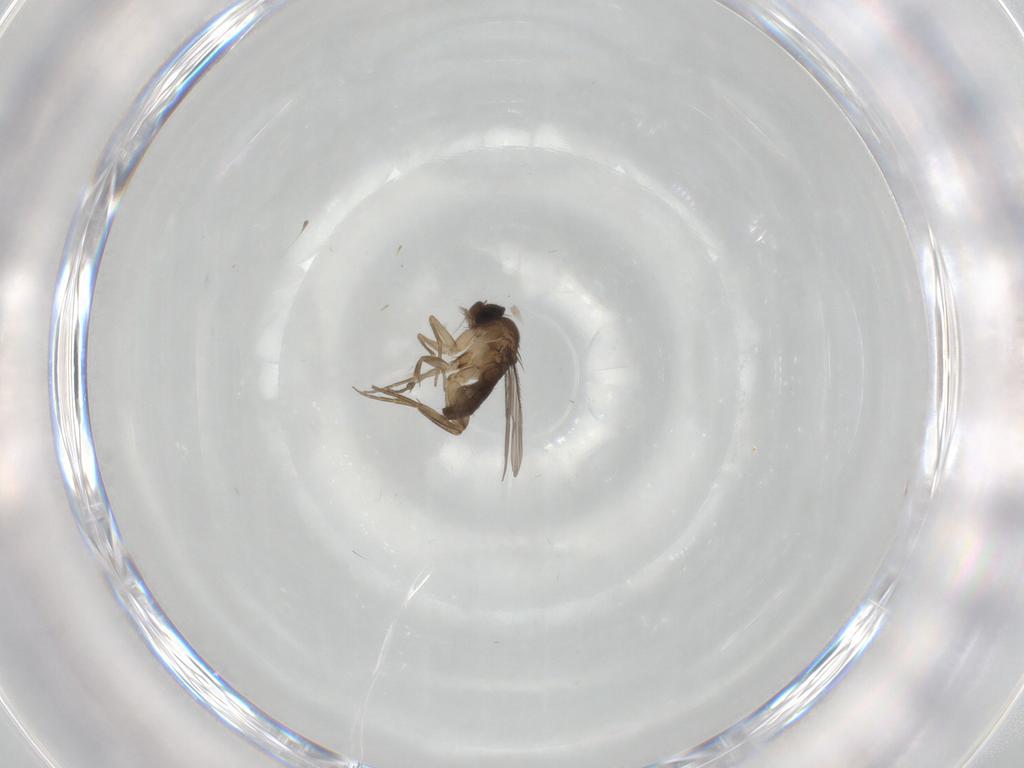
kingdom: Animalia
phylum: Arthropoda
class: Insecta
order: Diptera
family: Phoridae
